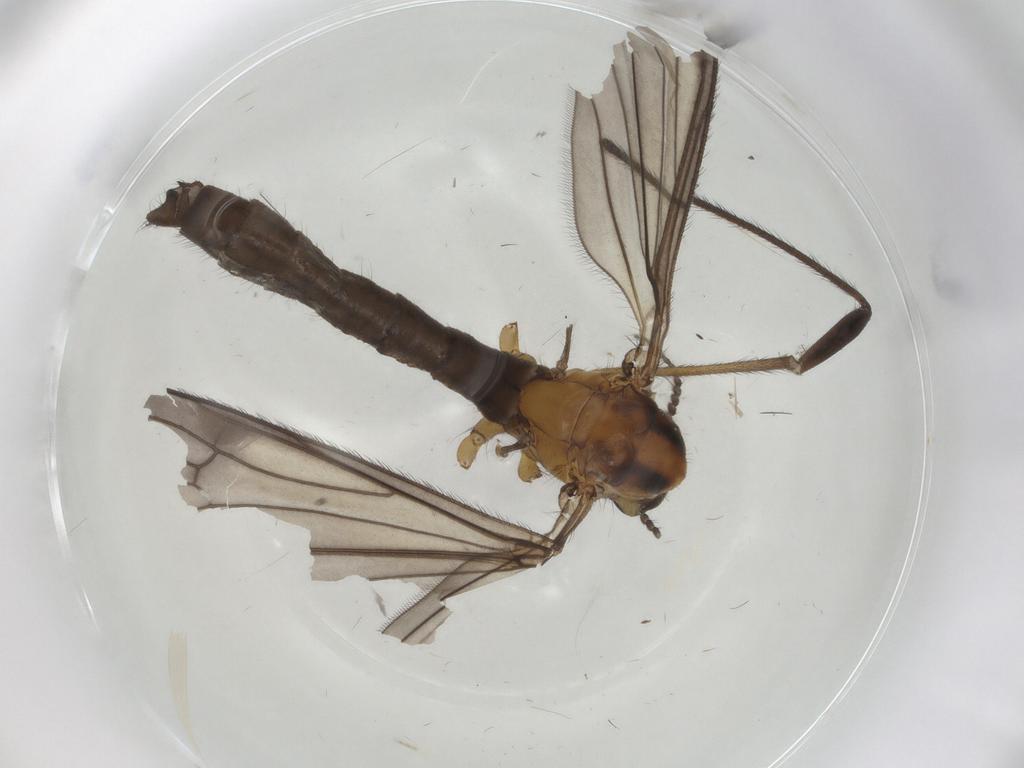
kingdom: Animalia
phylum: Arthropoda
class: Insecta
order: Diptera
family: Limoniidae
